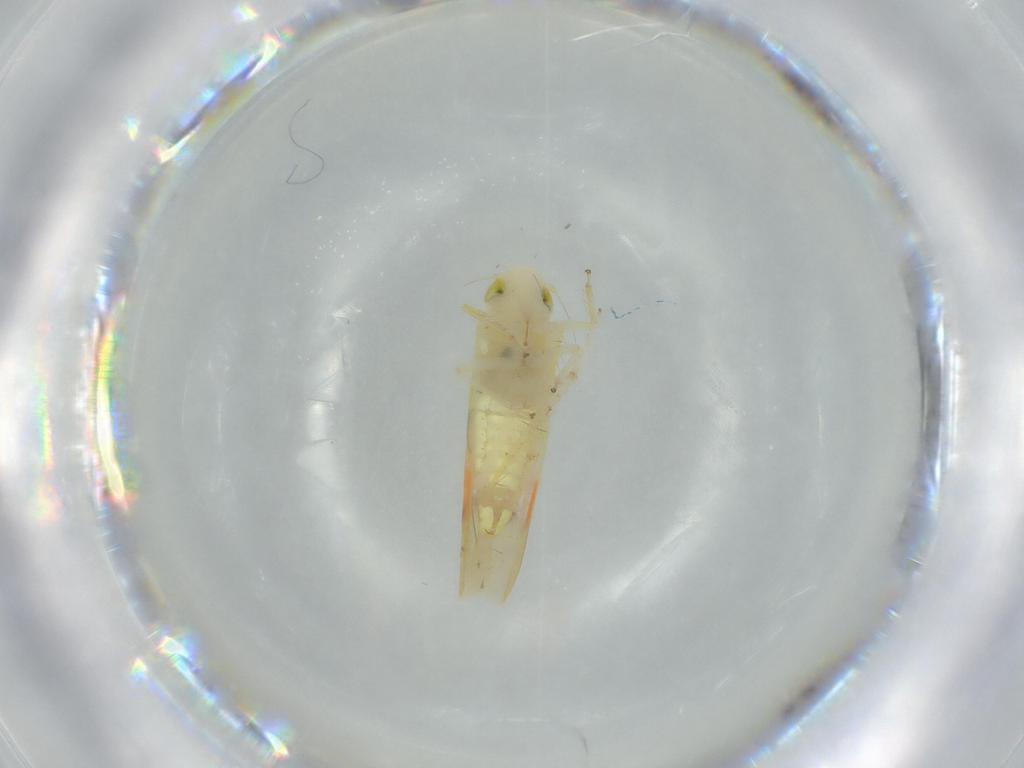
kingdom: Animalia
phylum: Arthropoda
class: Insecta
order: Hemiptera
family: Cicadellidae
